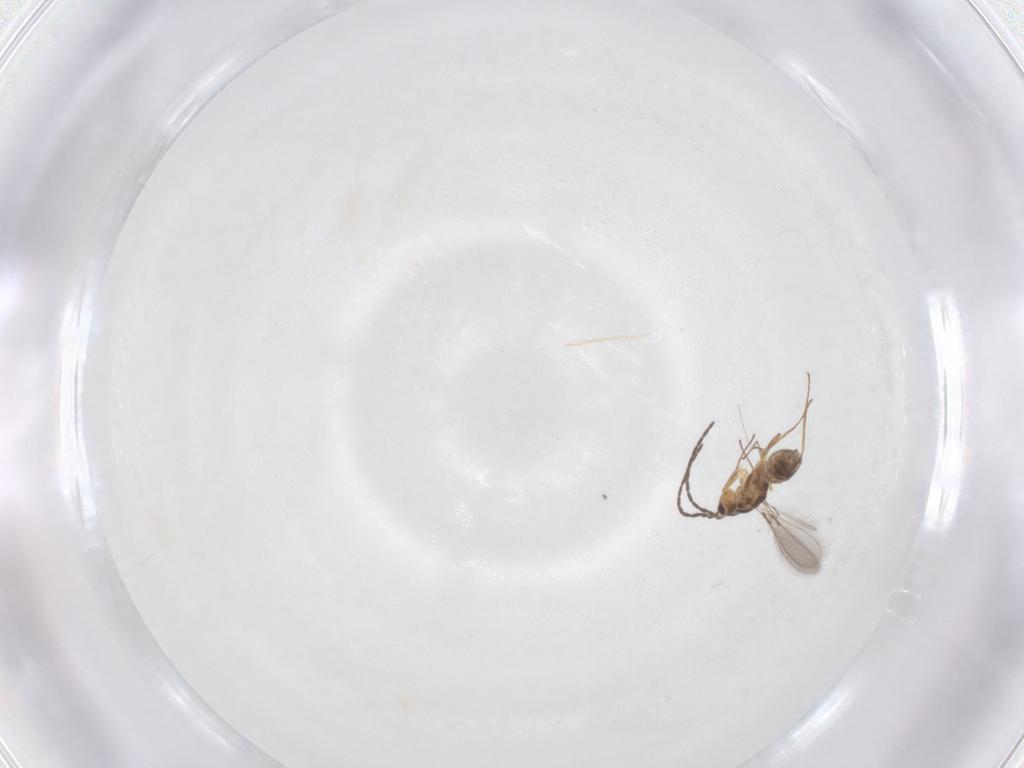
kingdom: Animalia
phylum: Arthropoda
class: Insecta
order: Hymenoptera
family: Mymaridae
